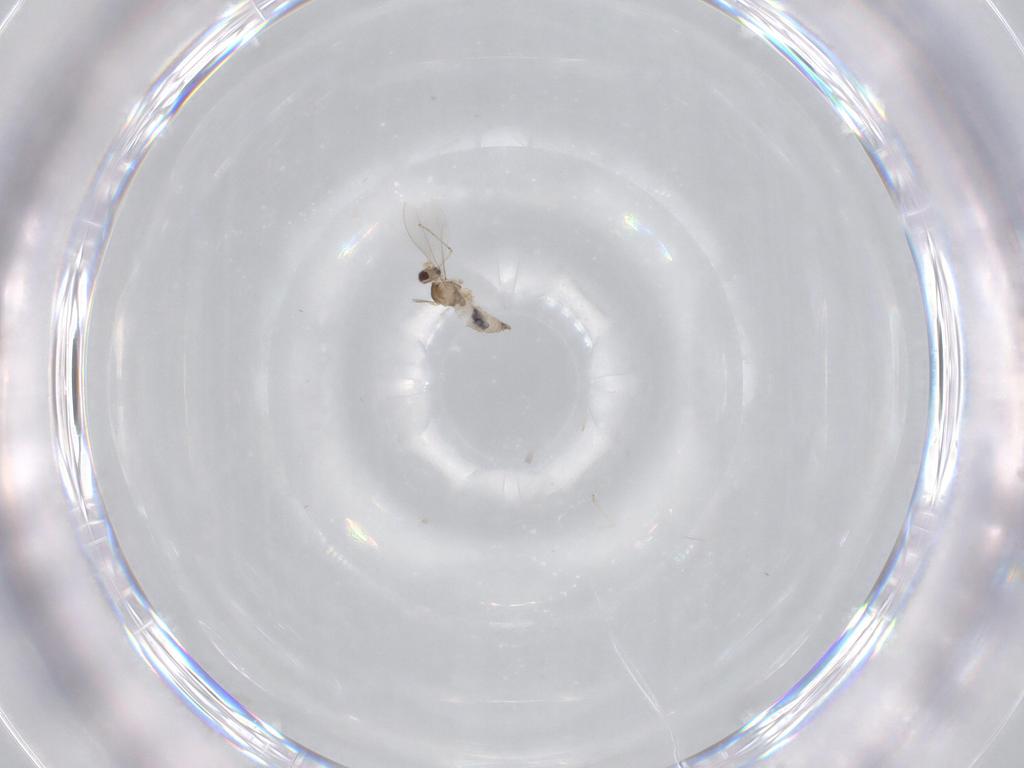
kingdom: Animalia
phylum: Arthropoda
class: Insecta
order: Diptera
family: Cecidomyiidae
